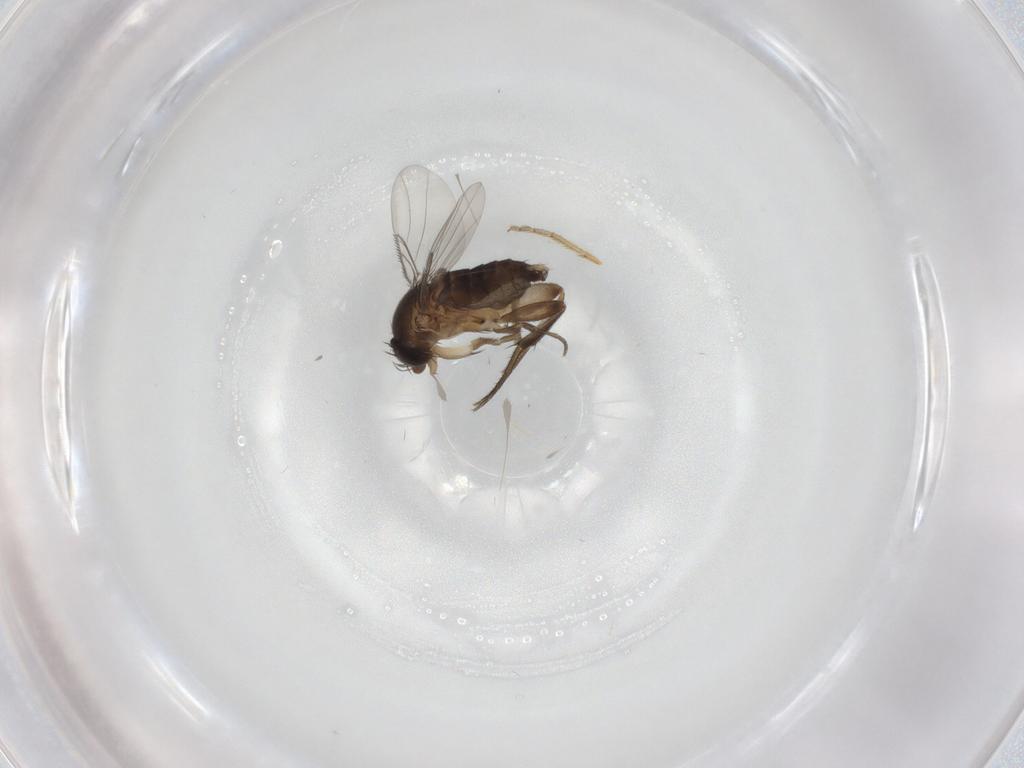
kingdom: Animalia
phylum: Arthropoda
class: Insecta
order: Diptera
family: Phoridae
